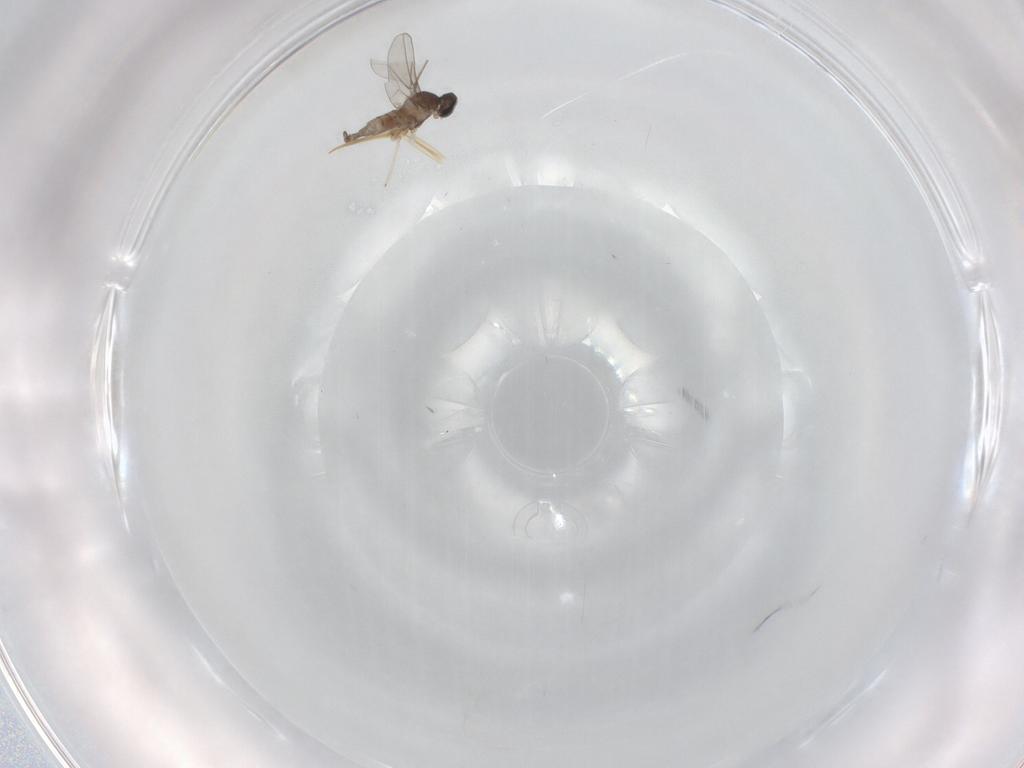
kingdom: Animalia
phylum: Arthropoda
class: Insecta
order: Diptera
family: Cecidomyiidae
